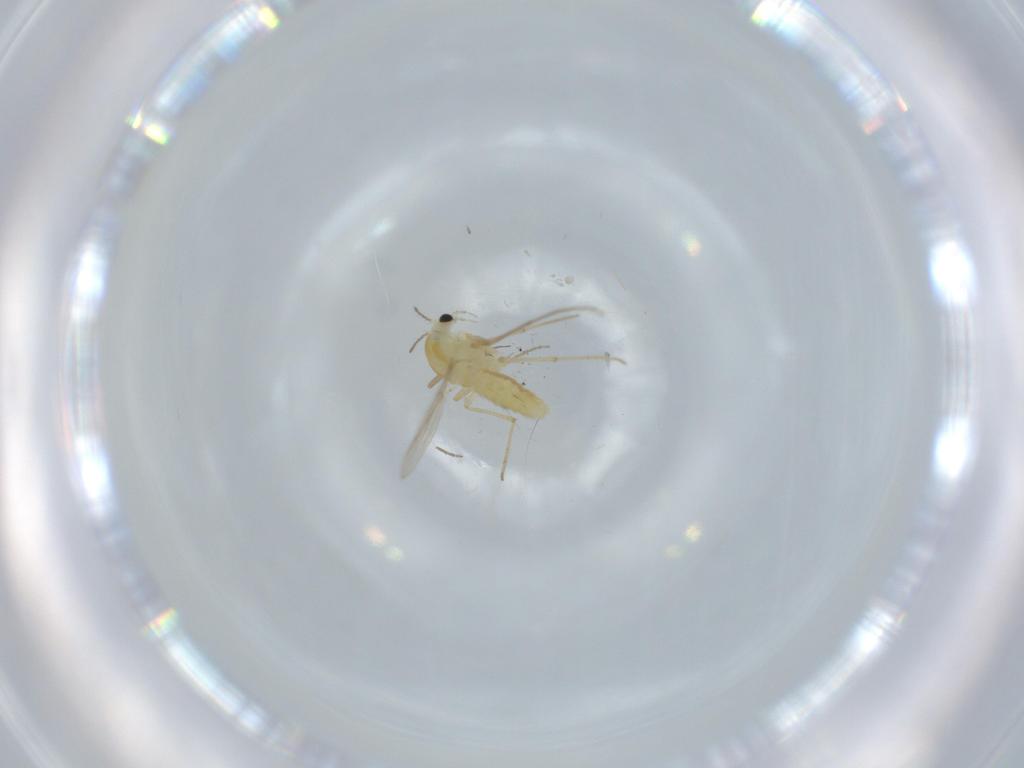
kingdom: Animalia
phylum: Arthropoda
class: Insecta
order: Diptera
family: Chironomidae
